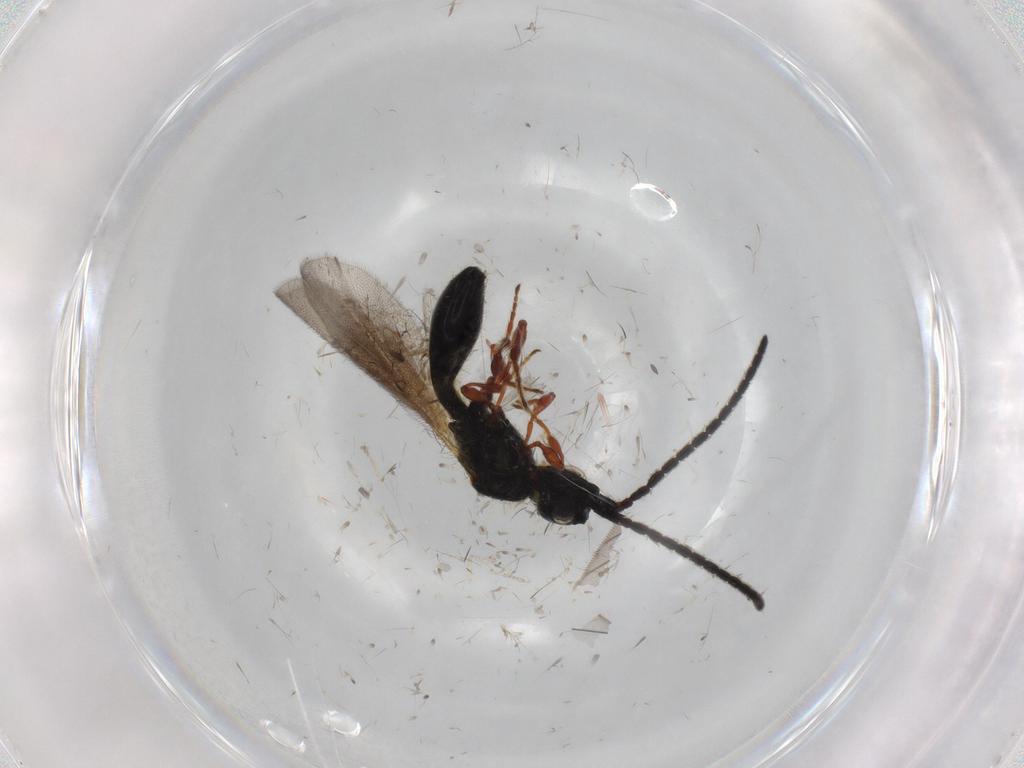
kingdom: Animalia
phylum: Arthropoda
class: Insecta
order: Hymenoptera
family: Diapriidae
